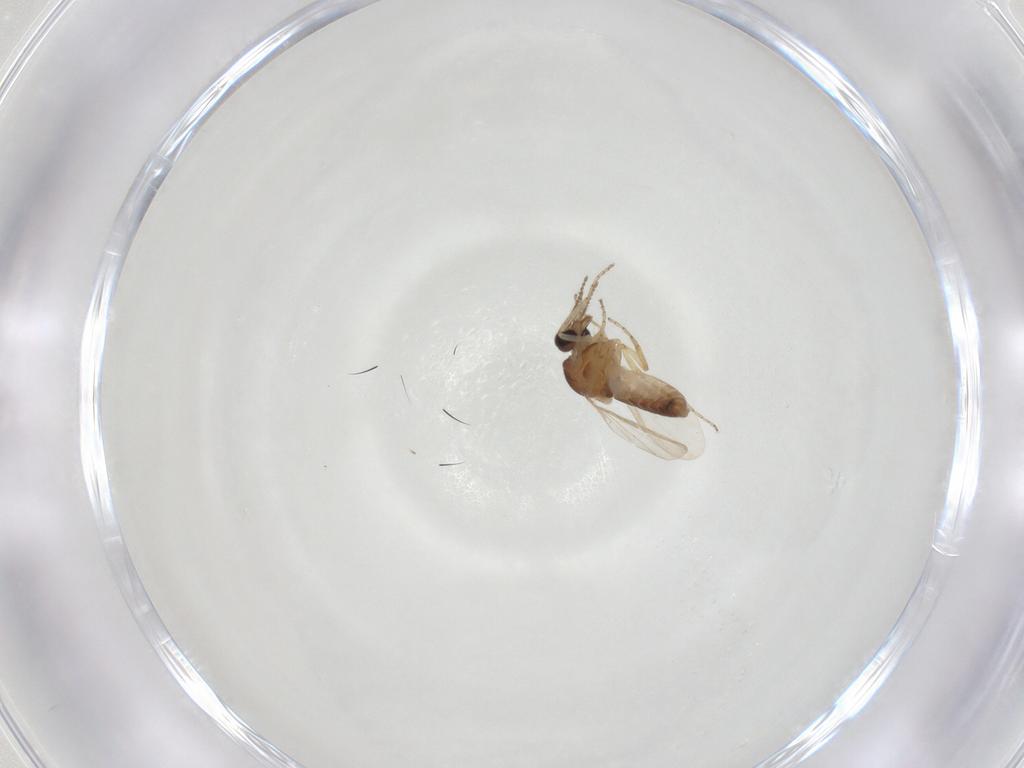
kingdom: Animalia
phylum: Arthropoda
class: Insecta
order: Diptera
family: Ceratopogonidae
